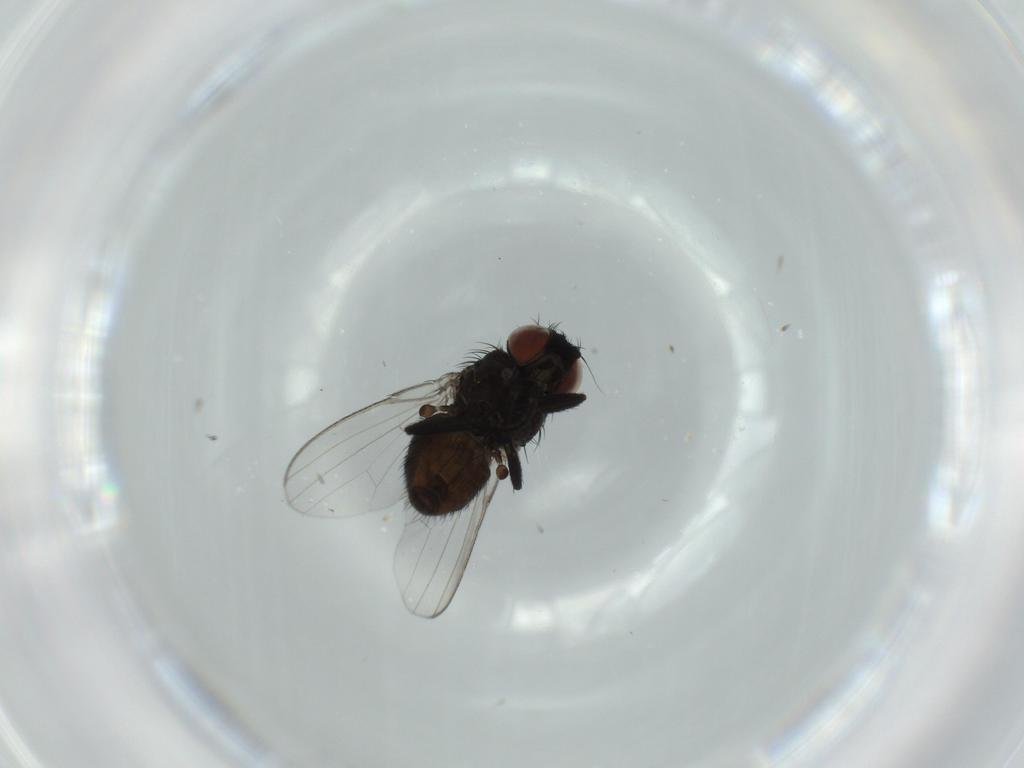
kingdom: Animalia
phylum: Arthropoda
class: Insecta
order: Diptera
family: Milichiidae
